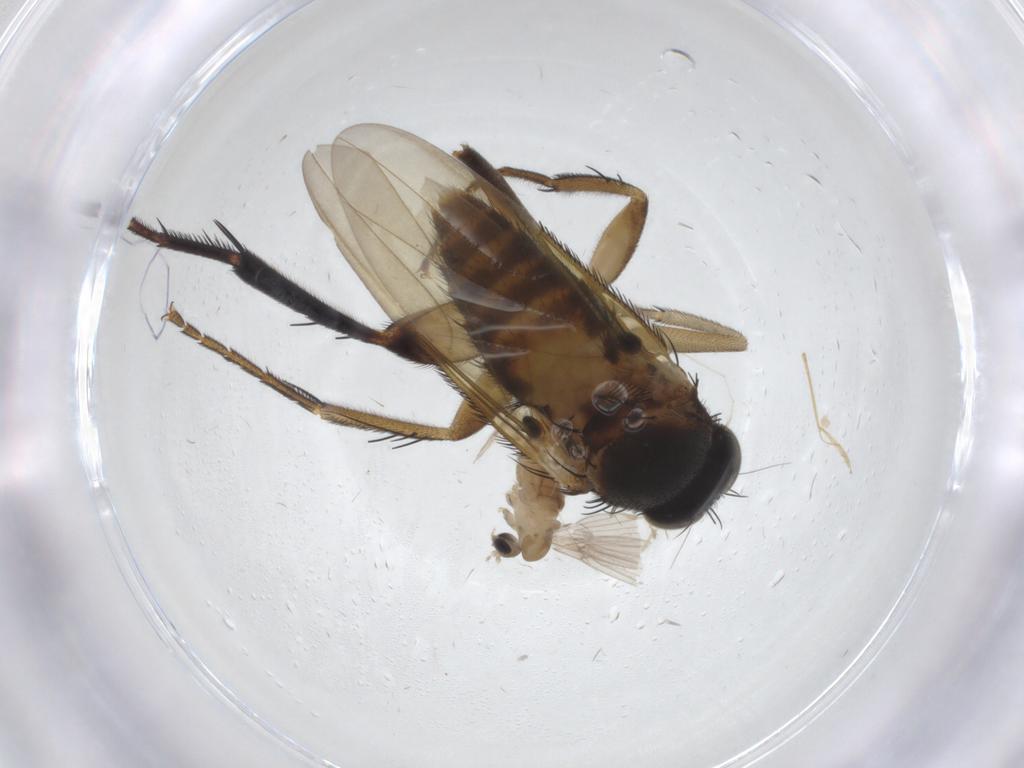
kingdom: Animalia
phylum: Arthropoda
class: Insecta
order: Diptera
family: Phoridae
